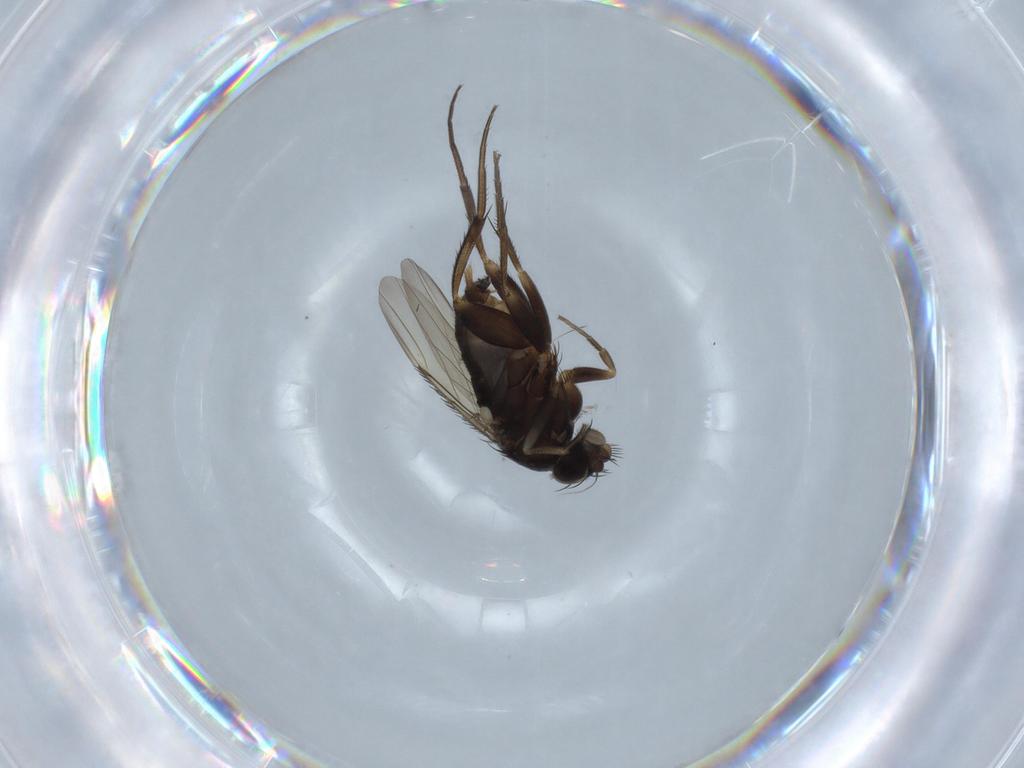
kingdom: Animalia
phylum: Arthropoda
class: Insecta
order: Diptera
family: Phoridae
